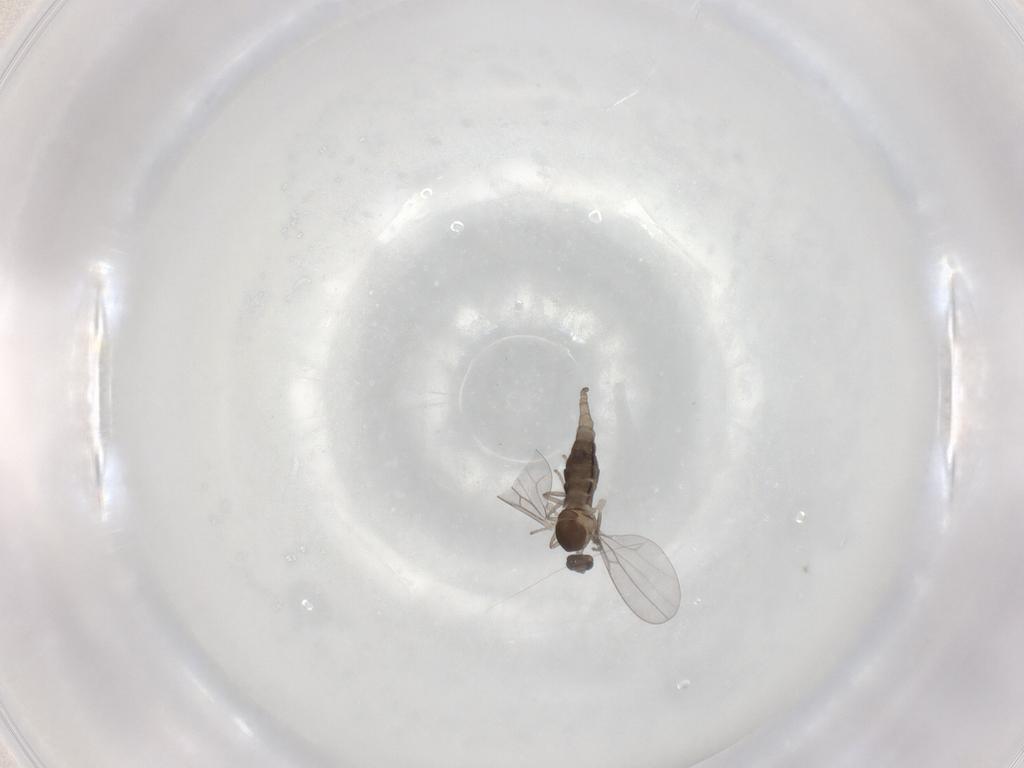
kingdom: Animalia
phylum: Arthropoda
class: Insecta
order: Diptera
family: Cecidomyiidae
